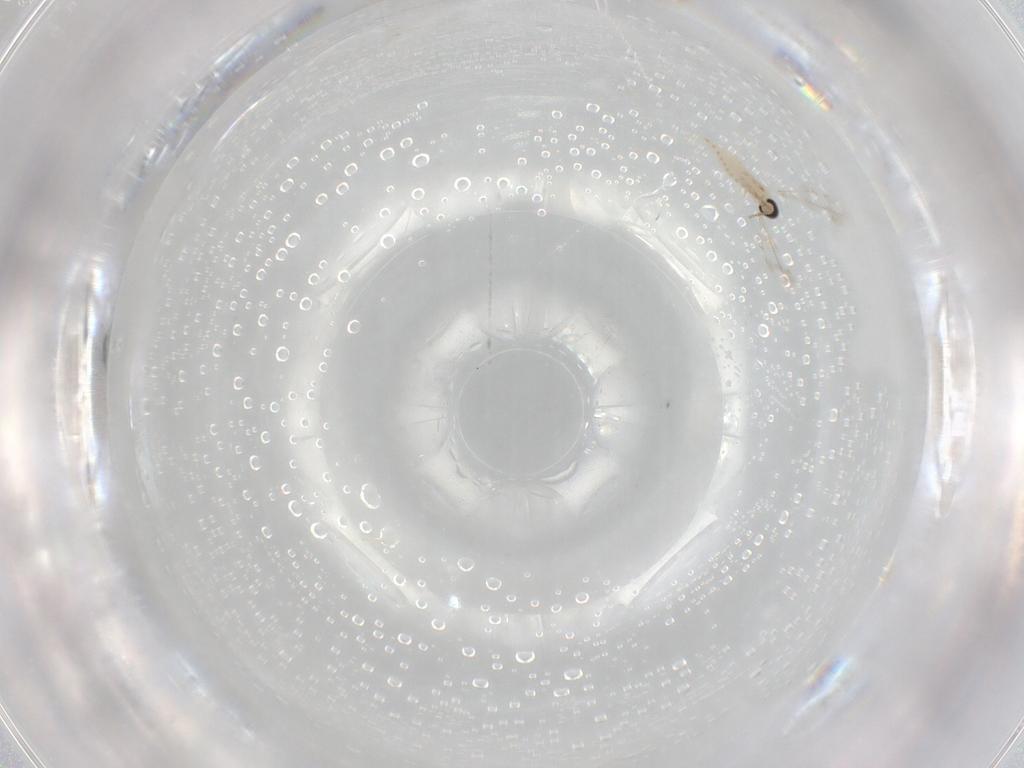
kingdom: Animalia
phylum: Arthropoda
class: Insecta
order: Diptera
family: Cecidomyiidae
